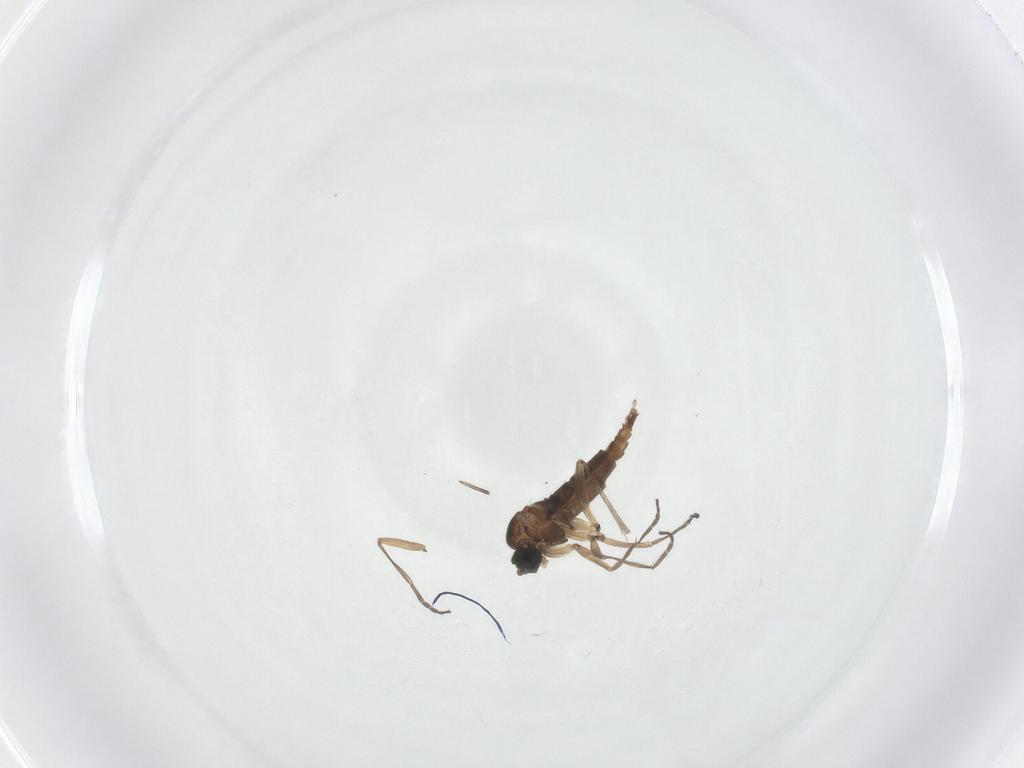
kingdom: Animalia
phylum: Arthropoda
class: Insecta
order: Diptera
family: Sciaridae
